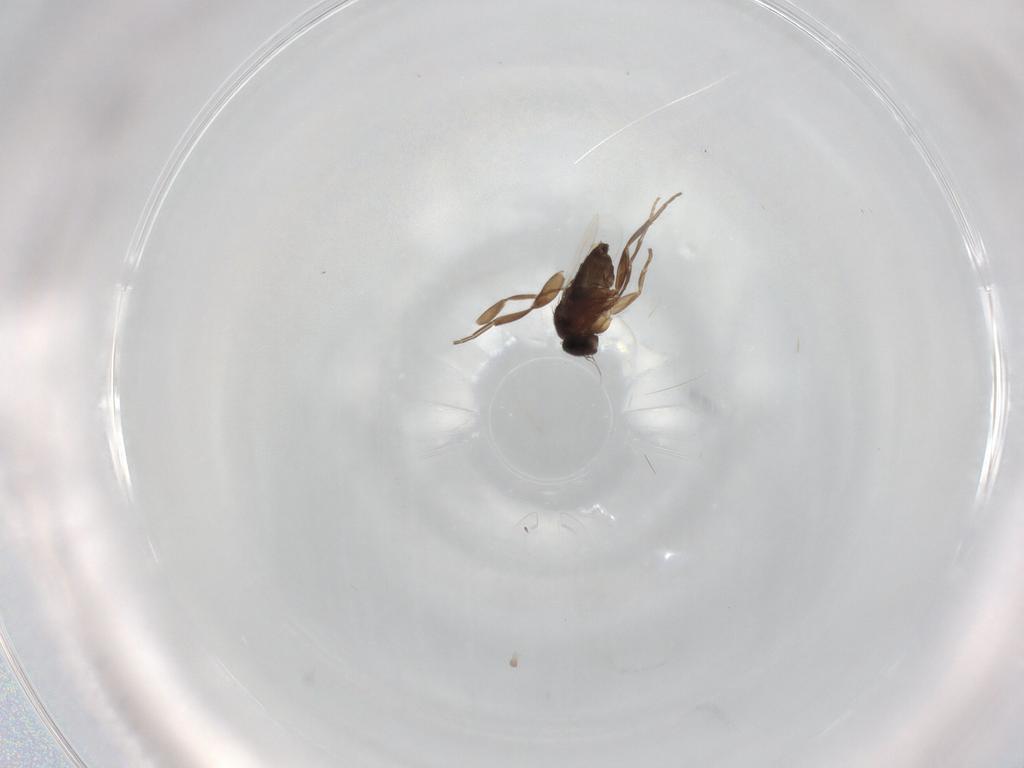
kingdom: Animalia
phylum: Arthropoda
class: Insecta
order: Diptera
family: Phoridae
